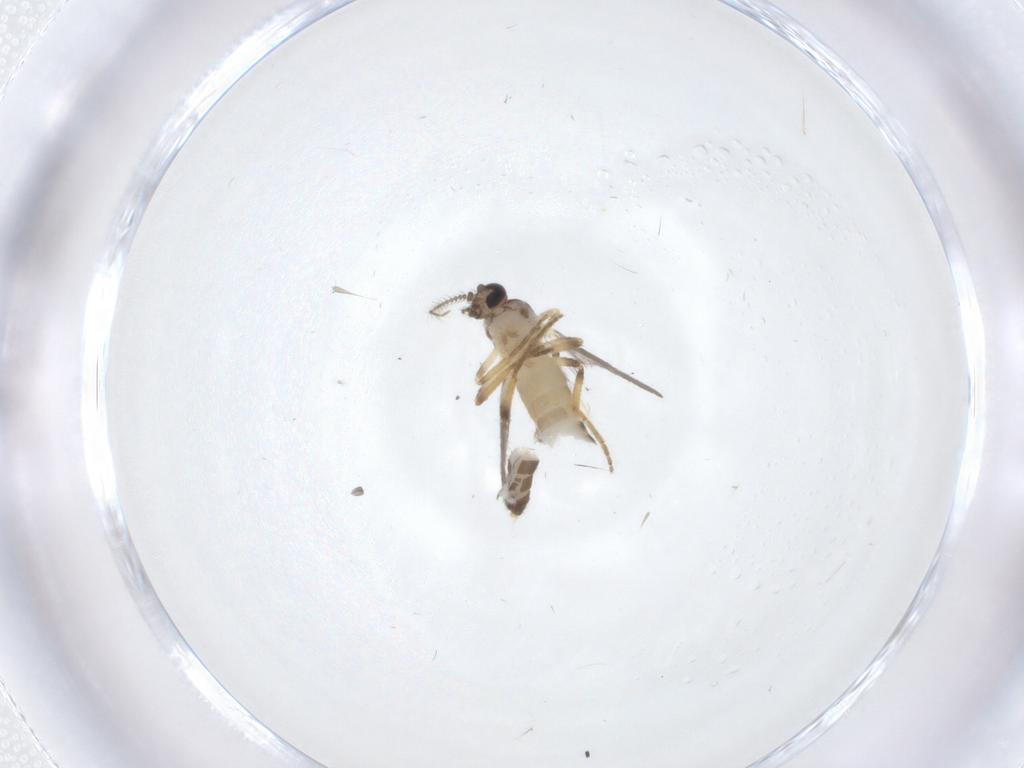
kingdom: Animalia
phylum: Arthropoda
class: Insecta
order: Diptera
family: Ceratopogonidae
